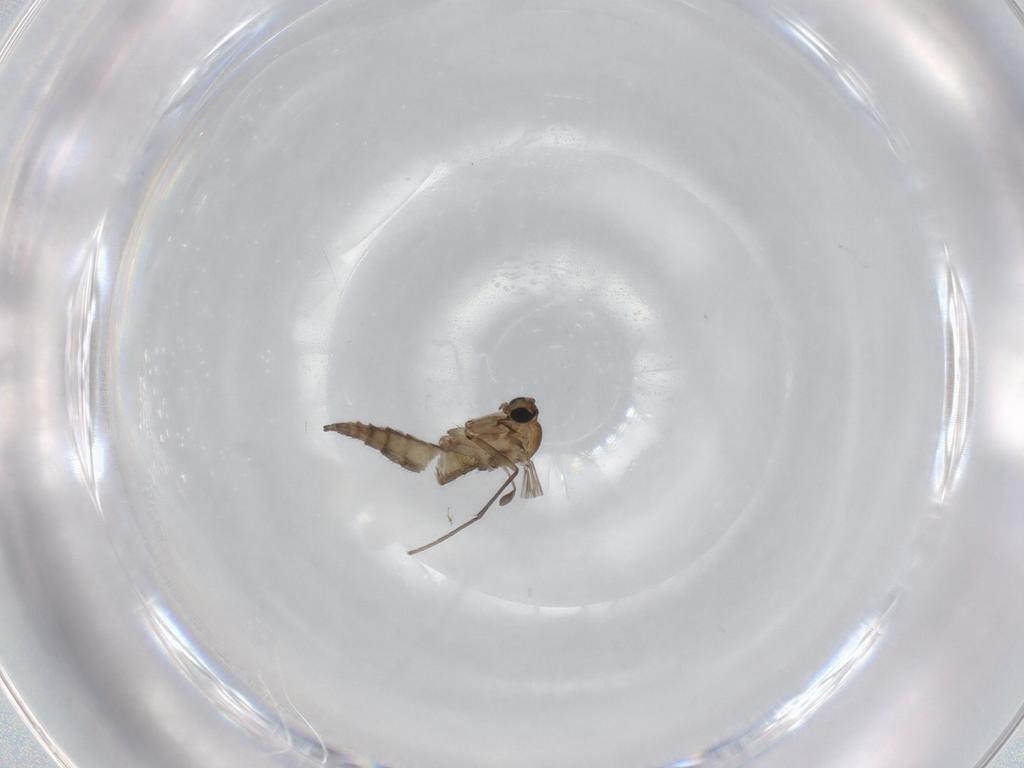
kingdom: Animalia
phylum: Arthropoda
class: Insecta
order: Diptera
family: Sciaridae
